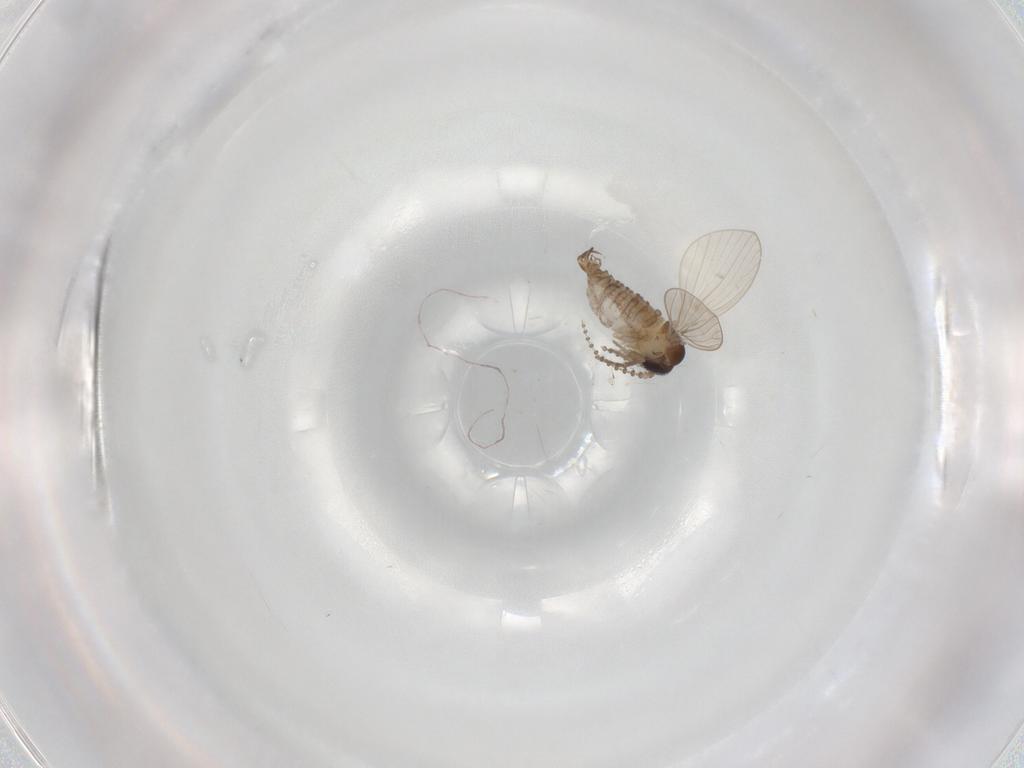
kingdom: Animalia
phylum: Arthropoda
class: Insecta
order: Diptera
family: Psychodidae
